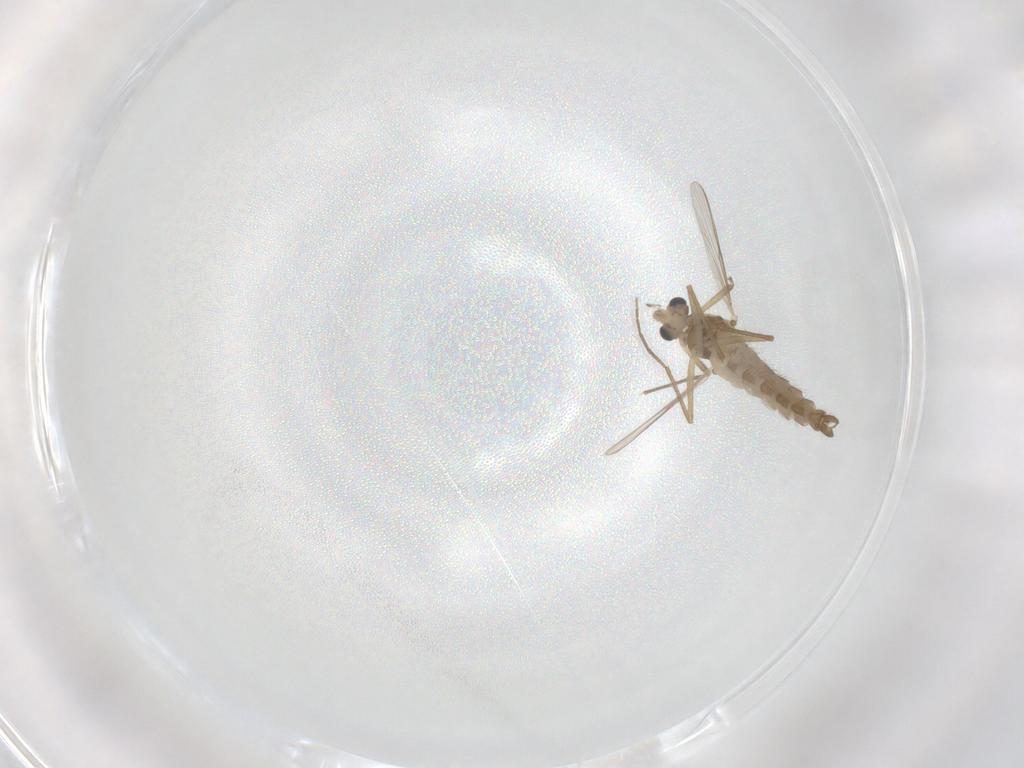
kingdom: Animalia
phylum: Arthropoda
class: Insecta
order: Diptera
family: Chironomidae
